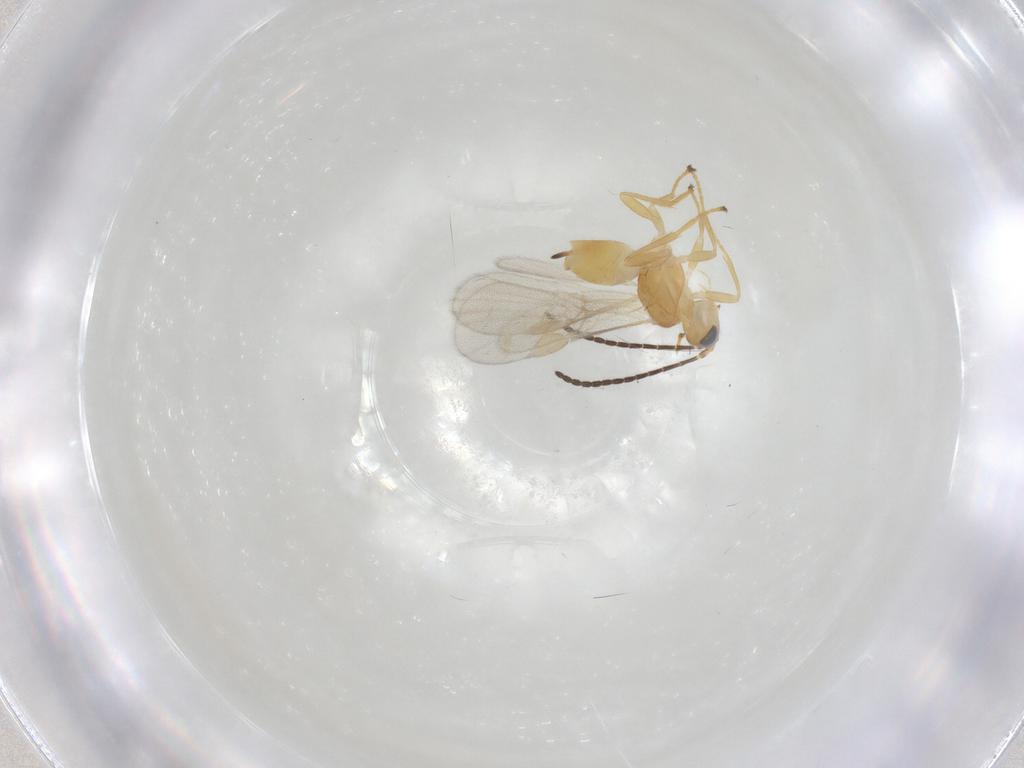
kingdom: Animalia
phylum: Arthropoda
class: Insecta
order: Hymenoptera
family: Braconidae
